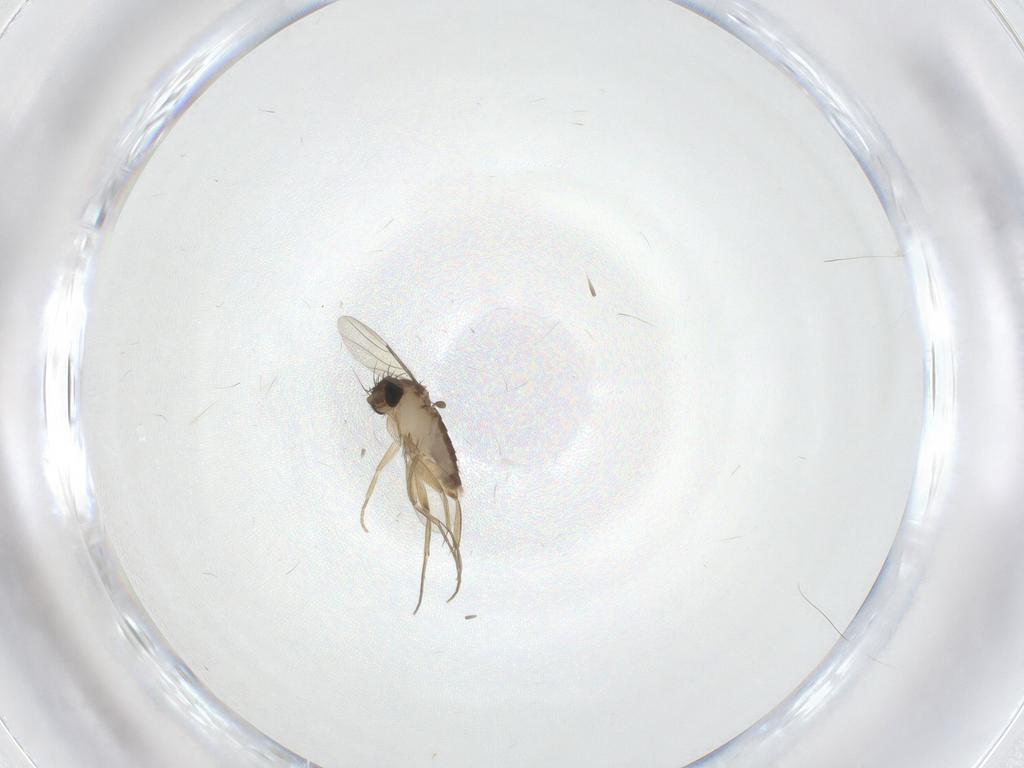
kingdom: Animalia
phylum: Arthropoda
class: Insecta
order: Diptera
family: Phoridae
